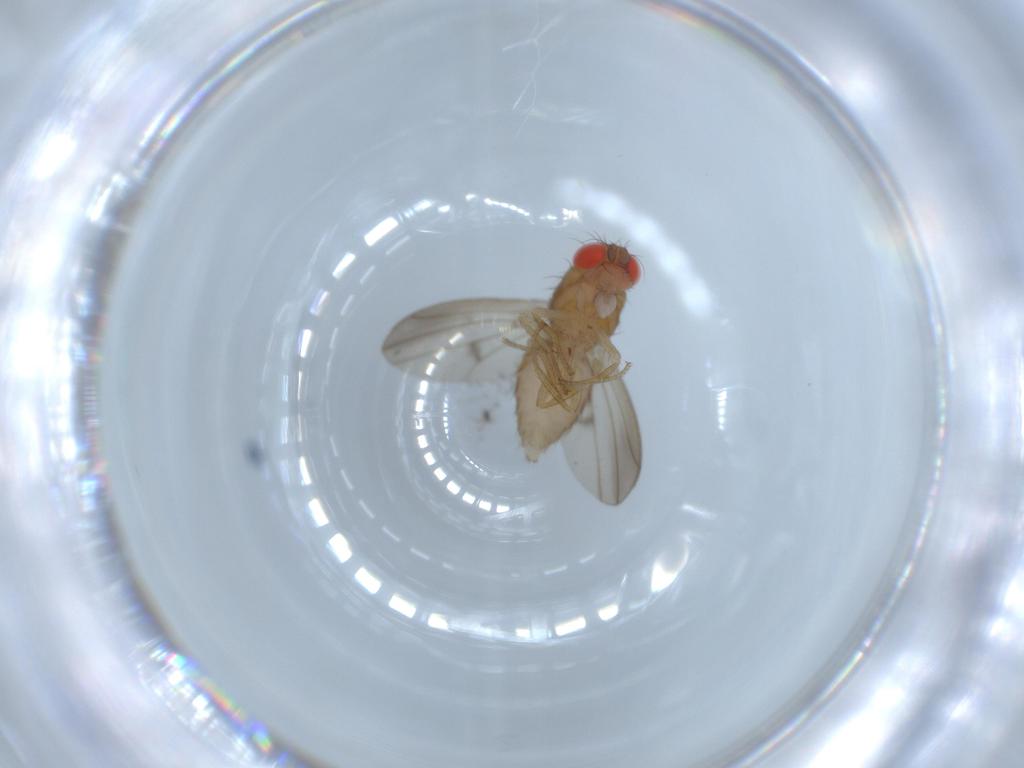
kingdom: Animalia
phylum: Arthropoda
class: Insecta
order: Diptera
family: Drosophilidae
